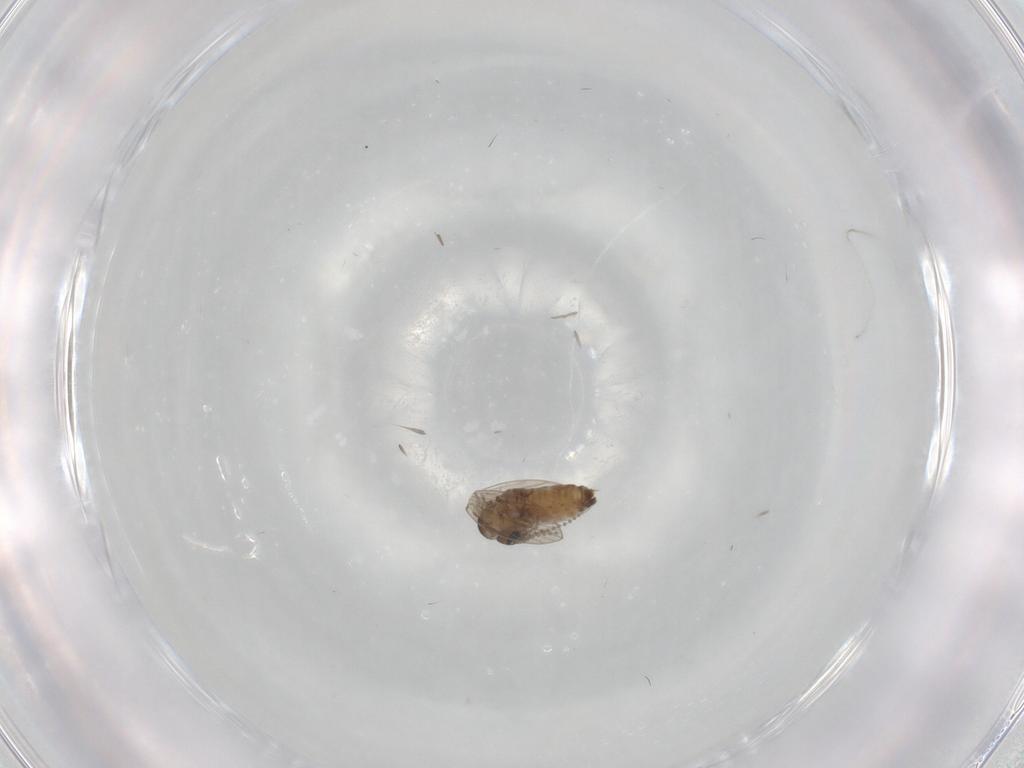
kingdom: Animalia
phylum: Arthropoda
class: Insecta
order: Diptera
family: Psychodidae
